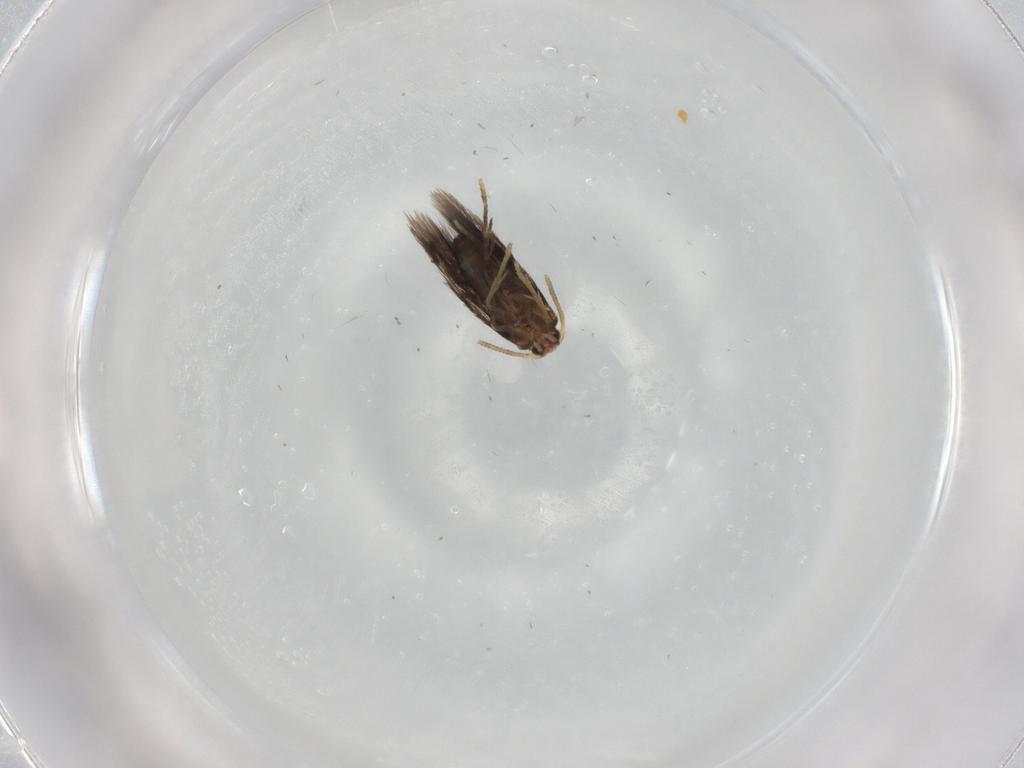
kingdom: Animalia
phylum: Arthropoda
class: Insecta
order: Lepidoptera
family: Nepticulidae
